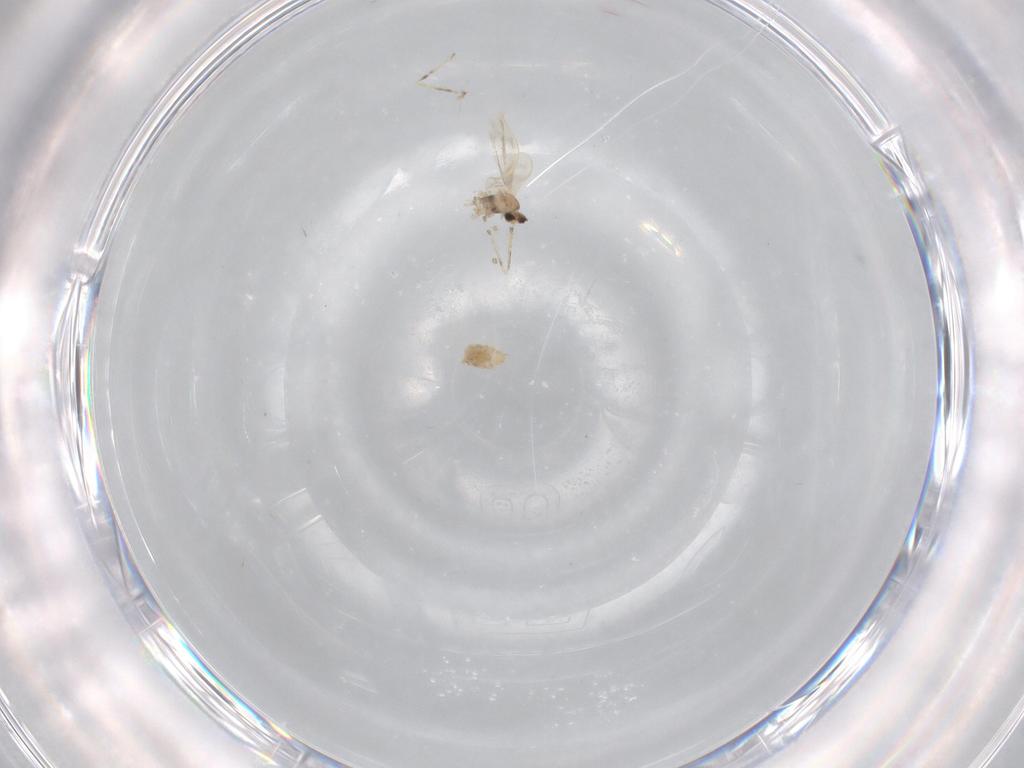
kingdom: Animalia
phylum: Arthropoda
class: Insecta
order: Diptera
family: Cecidomyiidae
